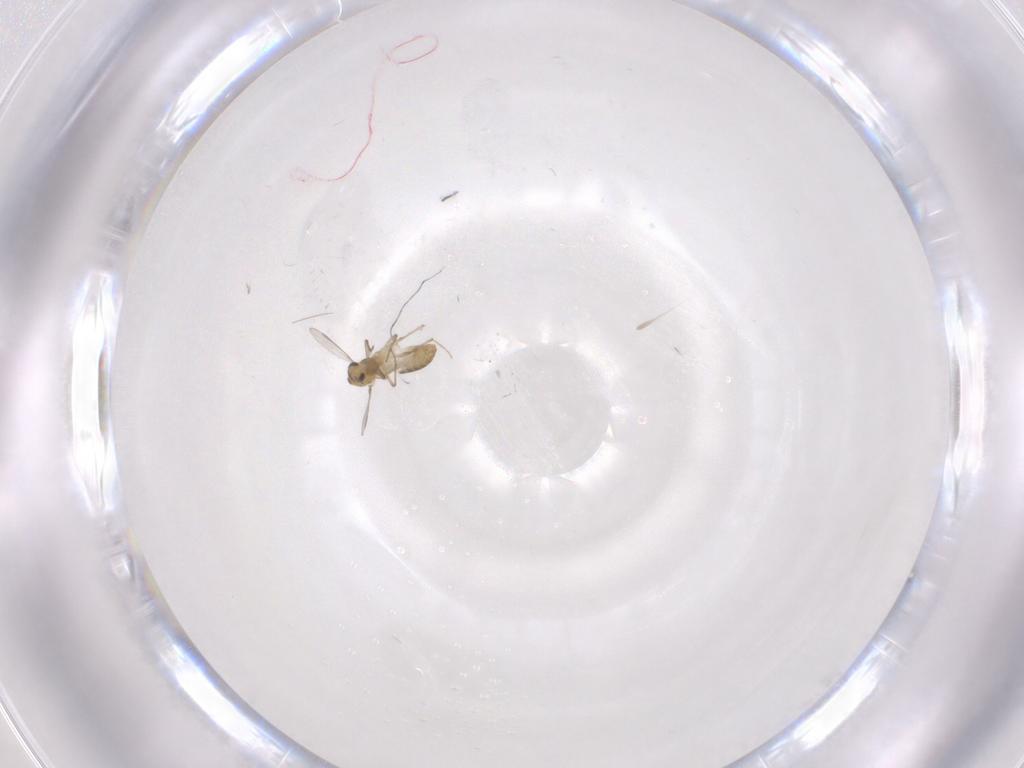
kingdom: Animalia
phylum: Arthropoda
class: Insecta
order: Diptera
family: Chironomidae
